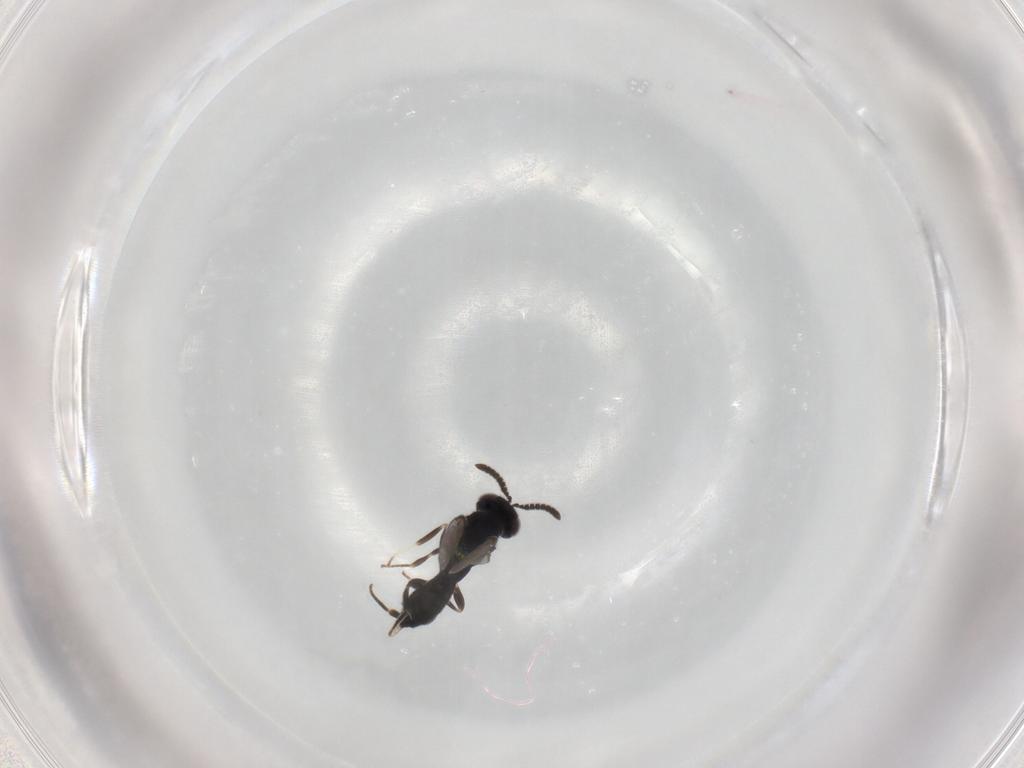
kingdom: Animalia
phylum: Arthropoda
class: Insecta
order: Hymenoptera
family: Cleonyminae
